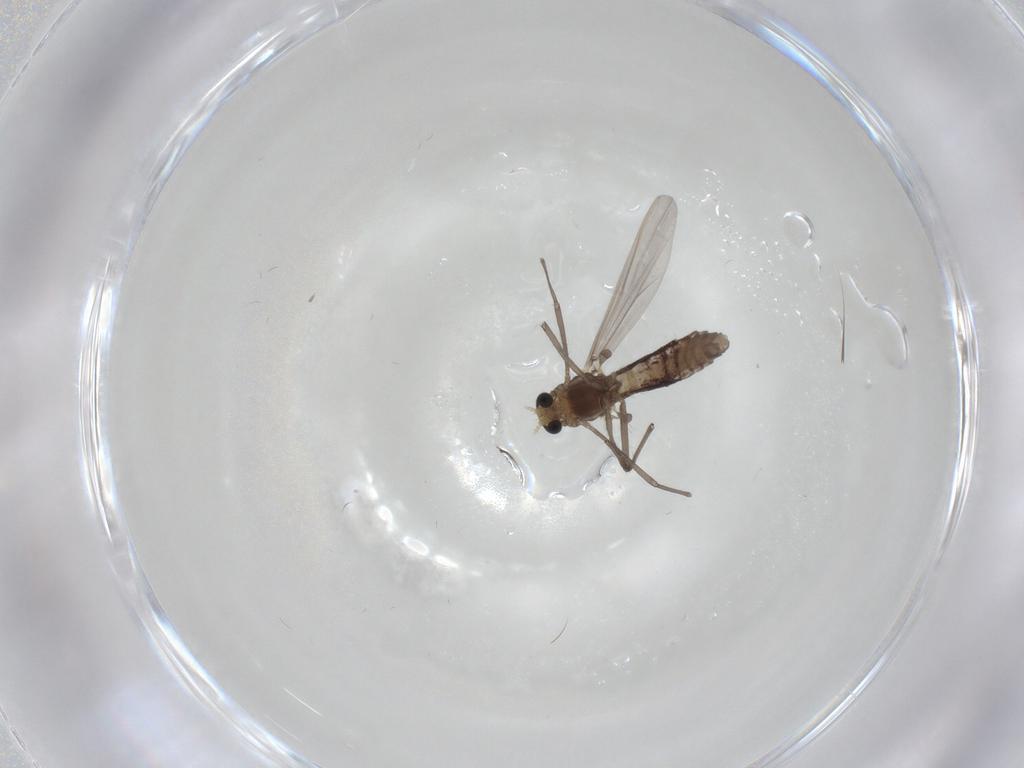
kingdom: Animalia
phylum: Arthropoda
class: Insecta
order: Diptera
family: Chironomidae
